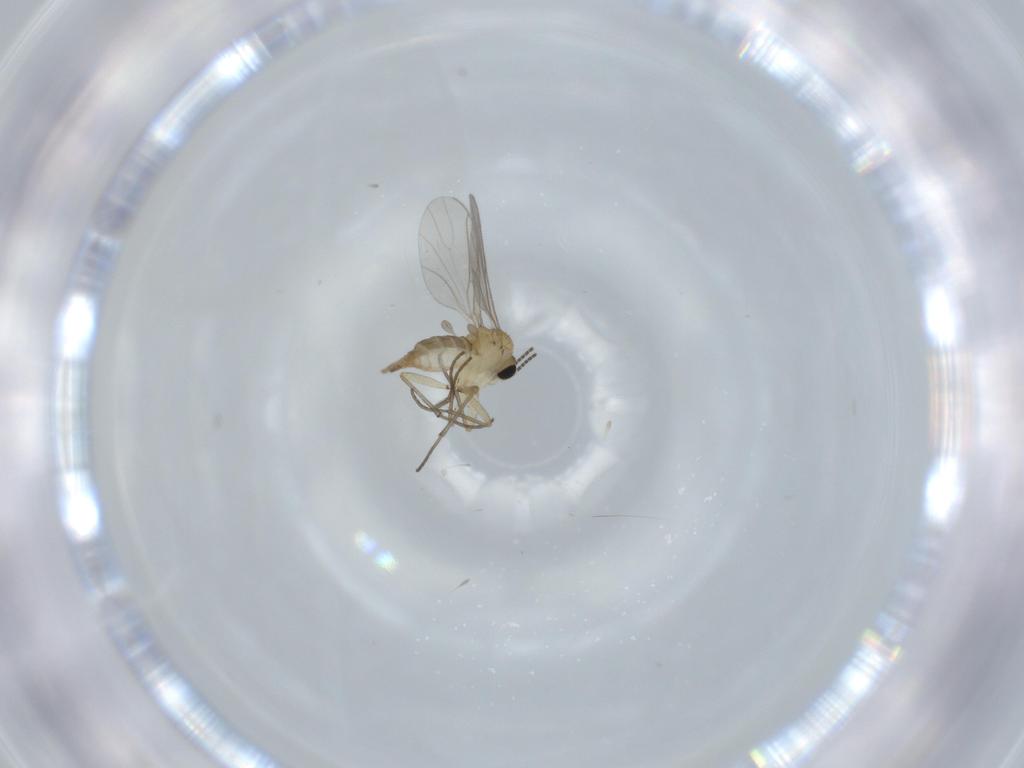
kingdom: Animalia
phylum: Arthropoda
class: Insecta
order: Diptera
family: Sciaridae
